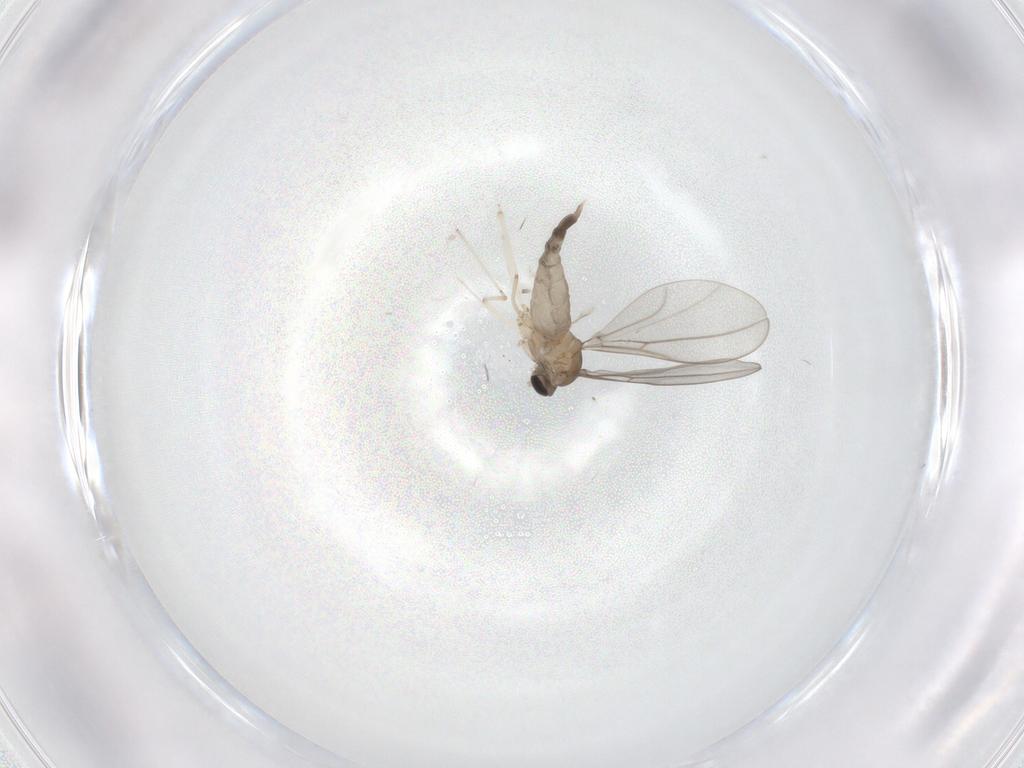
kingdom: Animalia
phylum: Arthropoda
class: Insecta
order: Diptera
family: Cecidomyiidae
